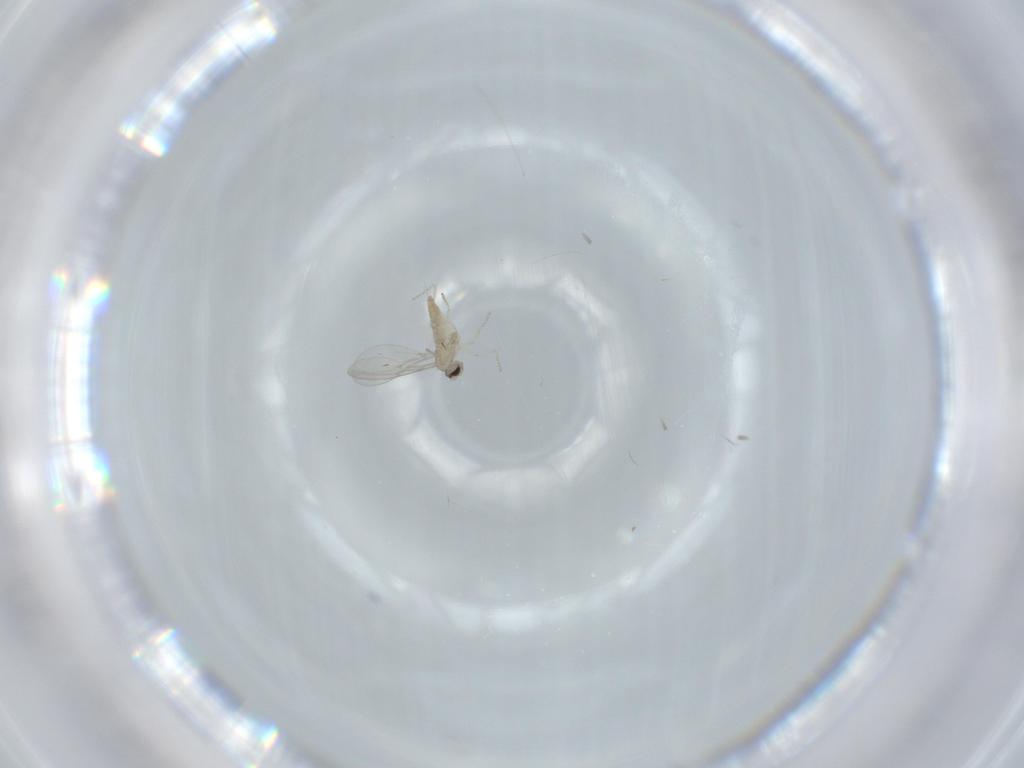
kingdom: Animalia
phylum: Arthropoda
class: Insecta
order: Diptera
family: Cecidomyiidae
